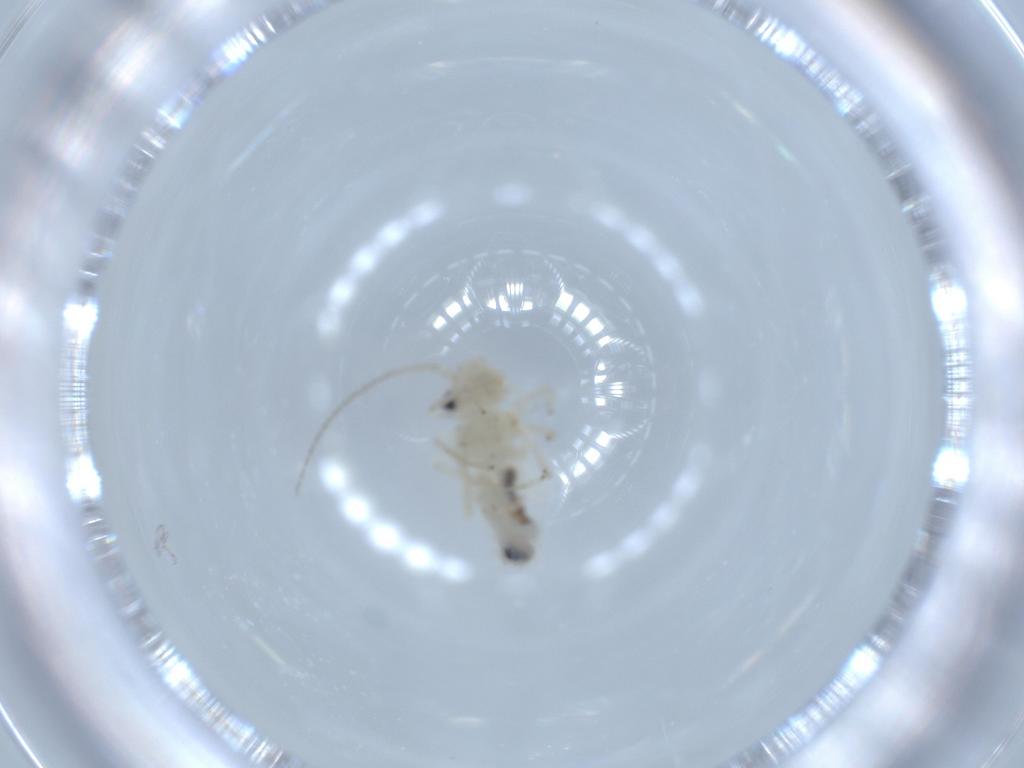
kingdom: Animalia
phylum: Arthropoda
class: Insecta
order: Psocodea
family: Caeciliusidae
